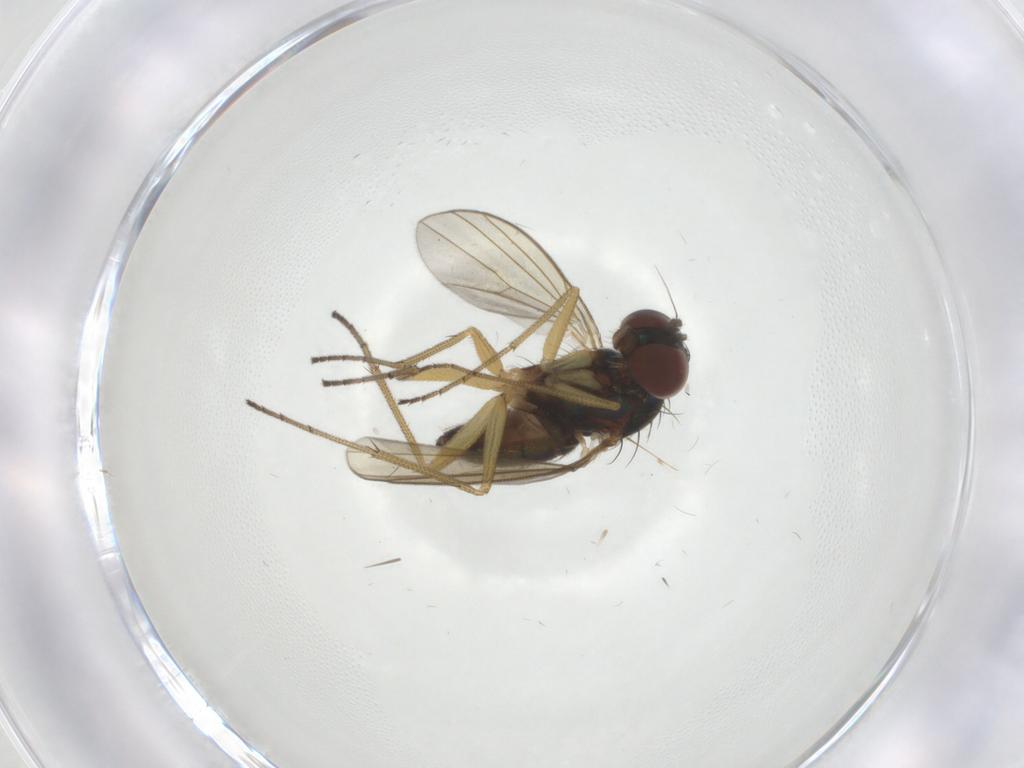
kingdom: Animalia
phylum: Arthropoda
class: Insecta
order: Diptera
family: Dolichopodidae
